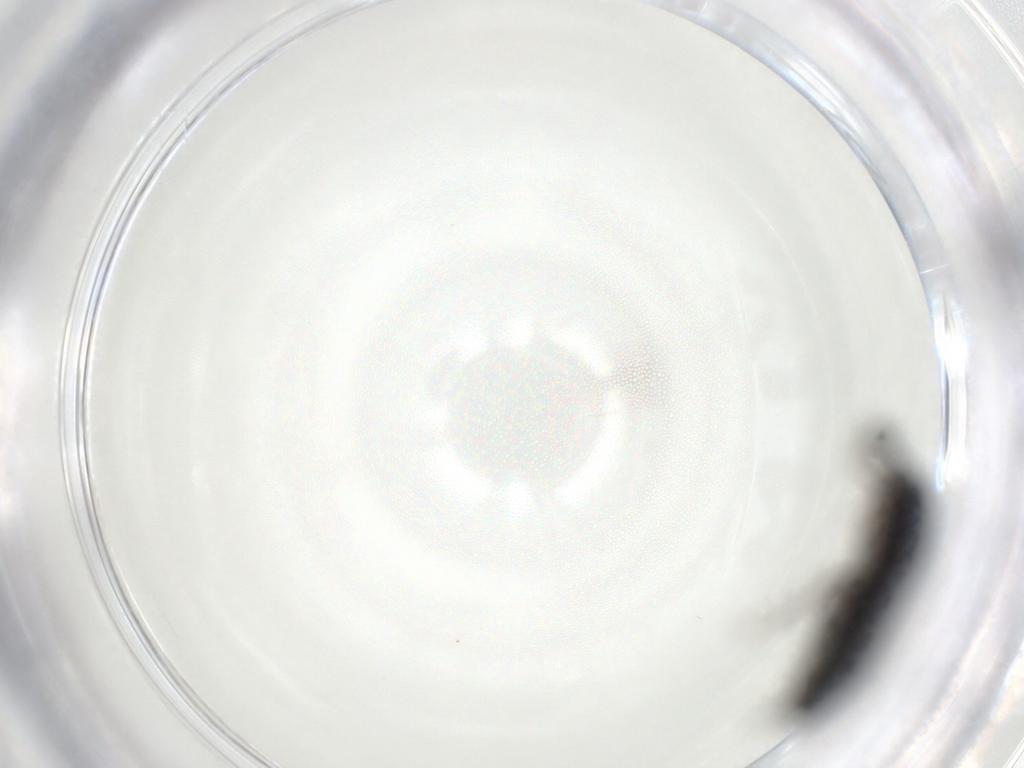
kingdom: Animalia
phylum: Arthropoda
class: Insecta
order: Hemiptera
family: Rhyparochromidae
